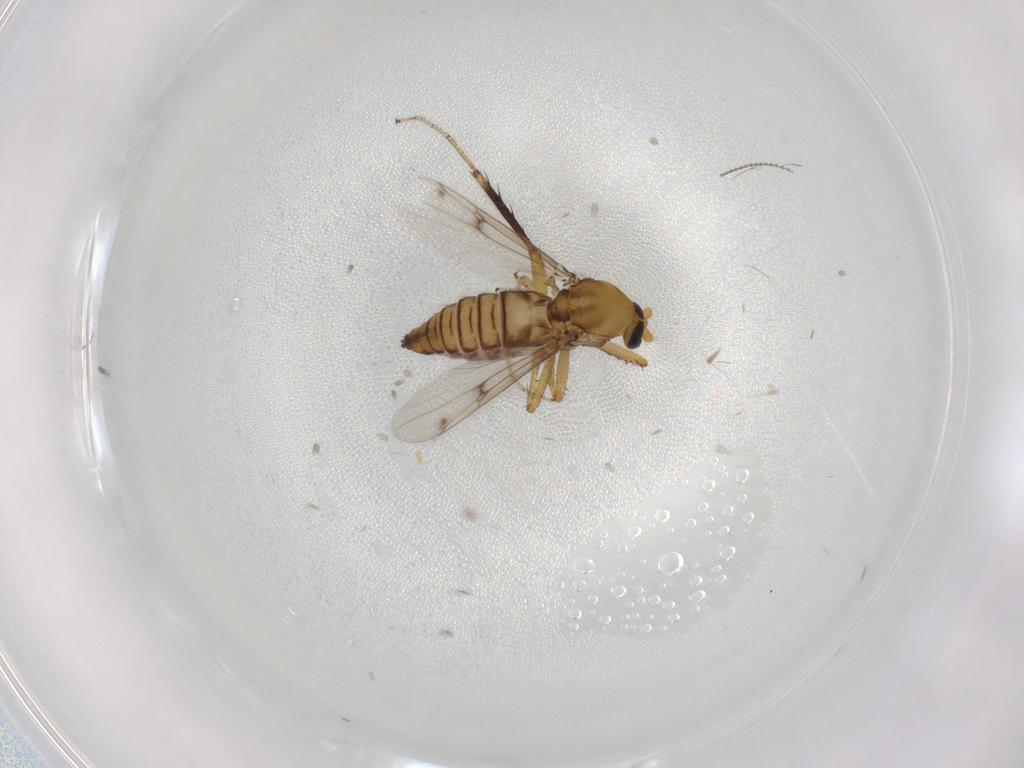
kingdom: Animalia
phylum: Arthropoda
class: Insecta
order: Diptera
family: Ceratopogonidae
